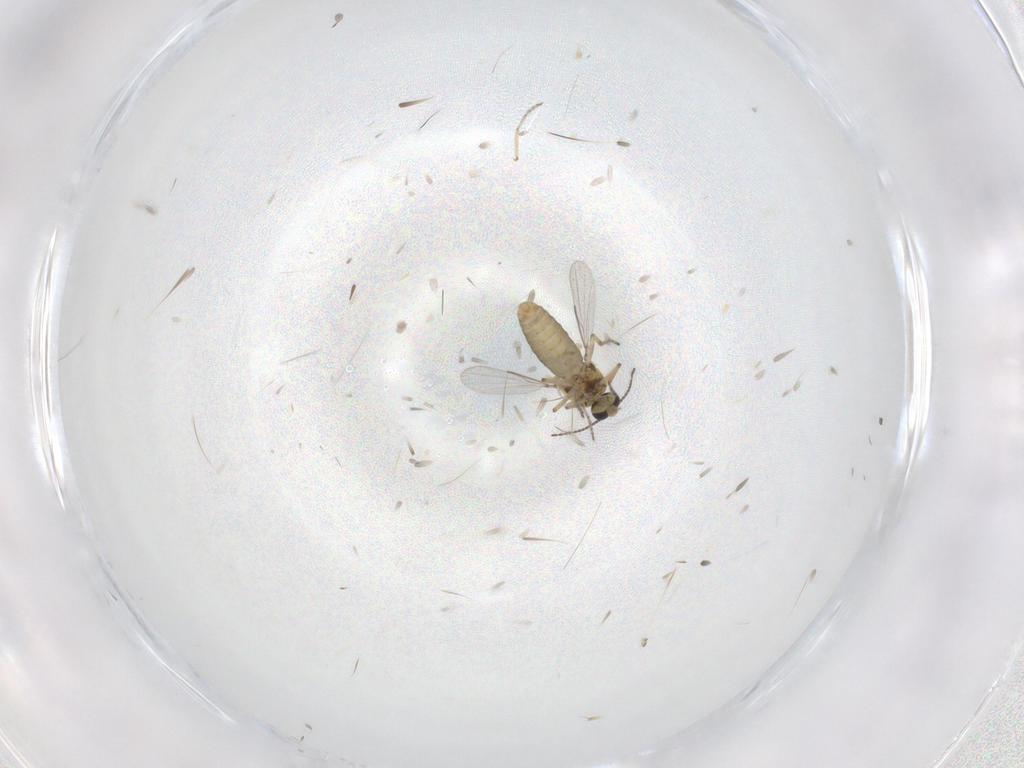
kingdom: Animalia
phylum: Arthropoda
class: Insecta
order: Diptera
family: Ceratopogonidae
